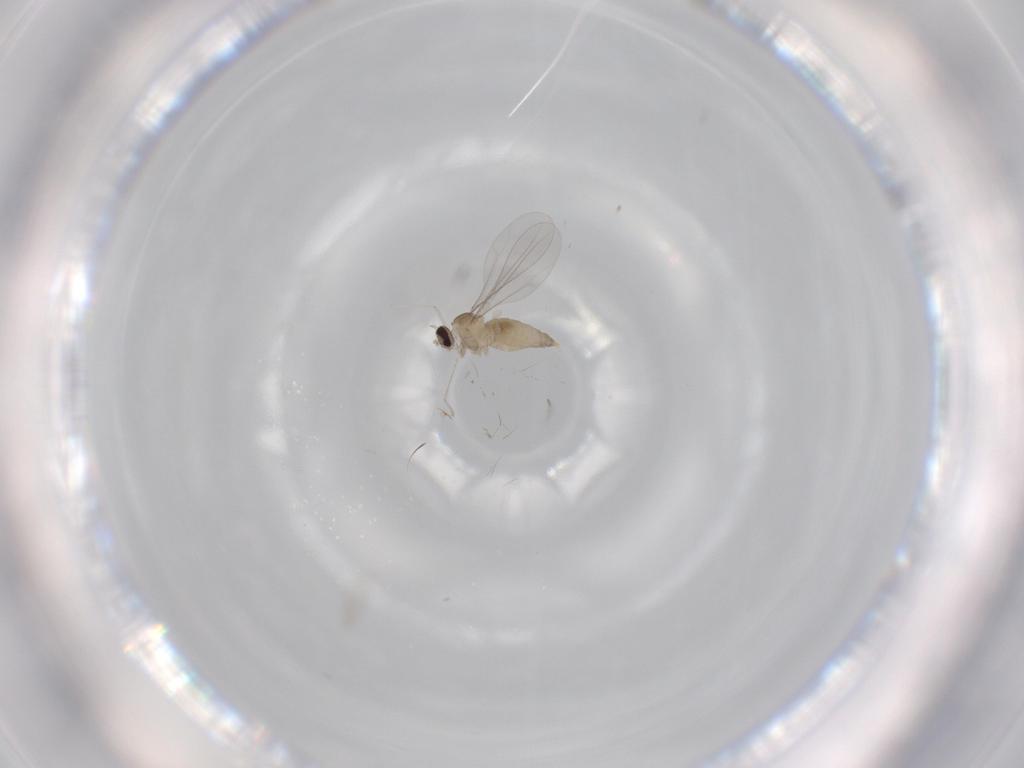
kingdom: Animalia
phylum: Arthropoda
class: Insecta
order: Diptera
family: Cecidomyiidae
